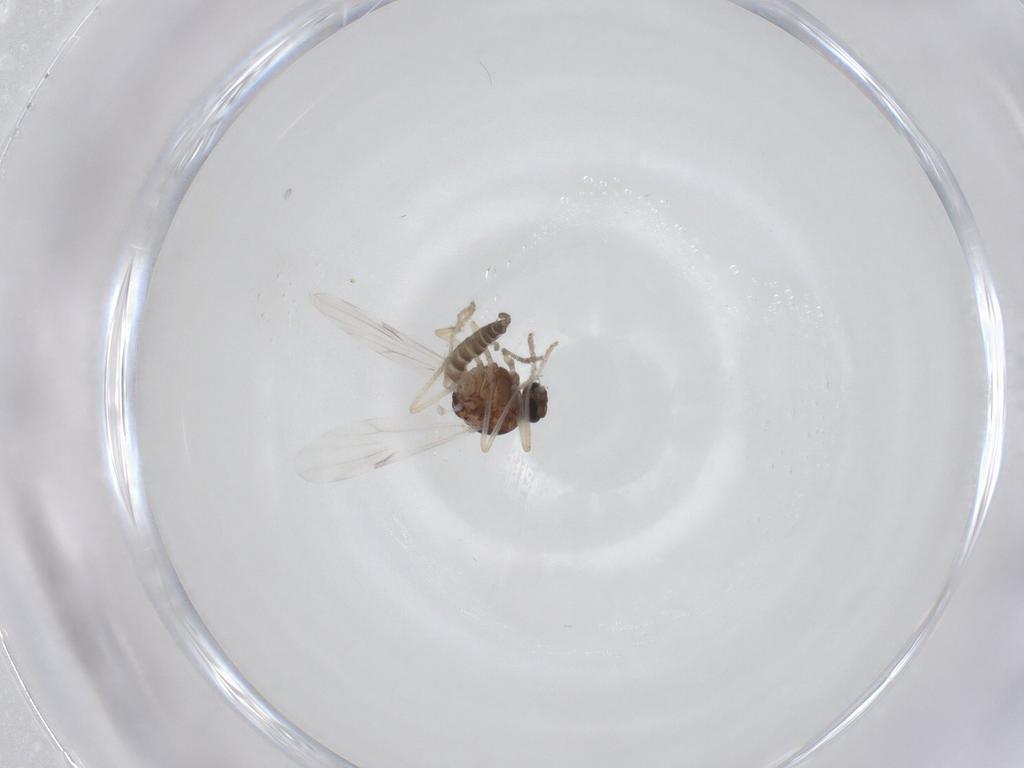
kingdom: Animalia
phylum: Arthropoda
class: Insecta
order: Diptera
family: Ceratopogonidae
